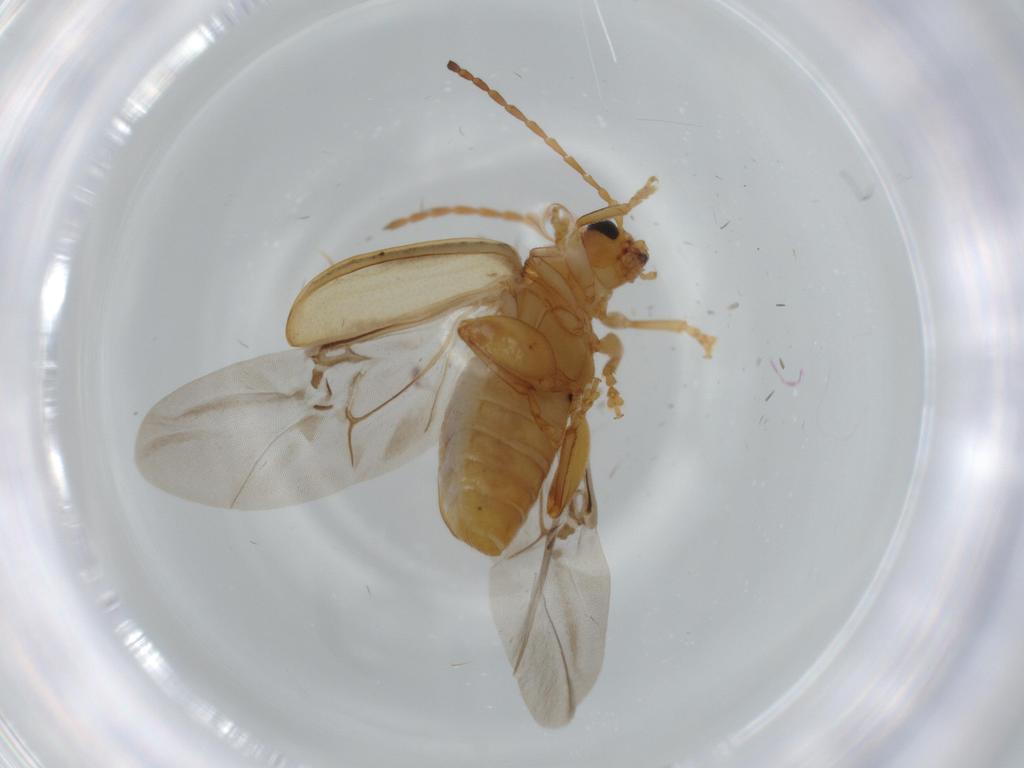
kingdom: Animalia
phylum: Arthropoda
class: Insecta
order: Coleoptera
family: Chrysomelidae
